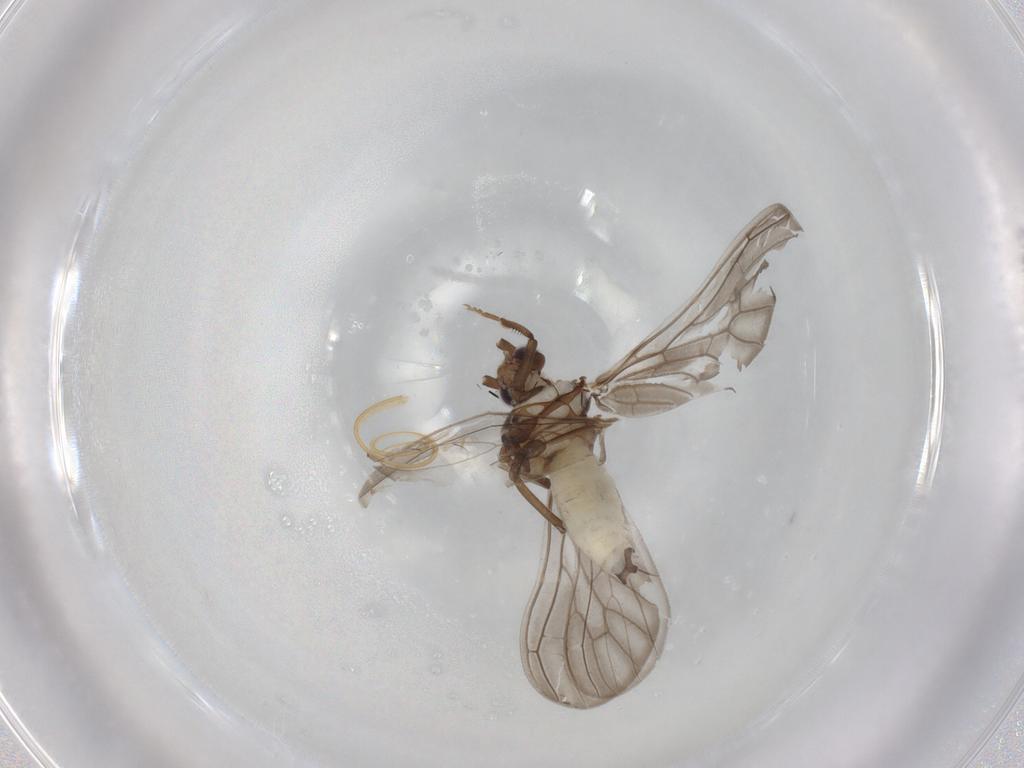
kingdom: Animalia
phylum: Arthropoda
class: Insecta
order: Neuroptera
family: Coniopterygidae
